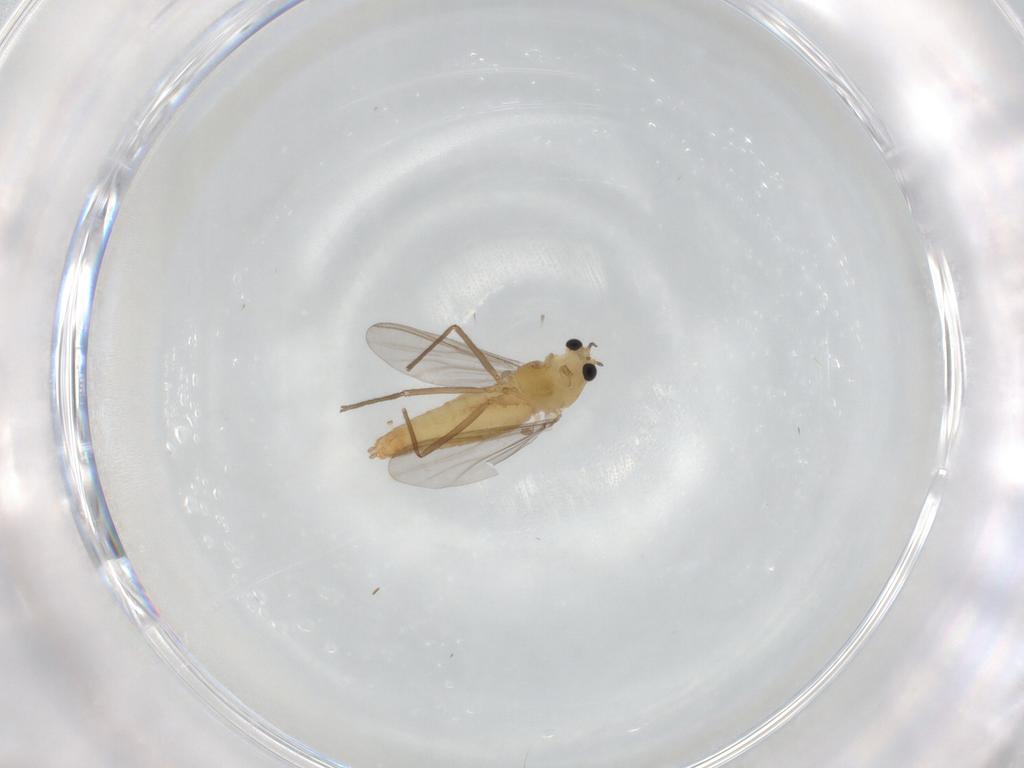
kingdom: Animalia
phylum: Arthropoda
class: Insecta
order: Diptera
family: Chironomidae
